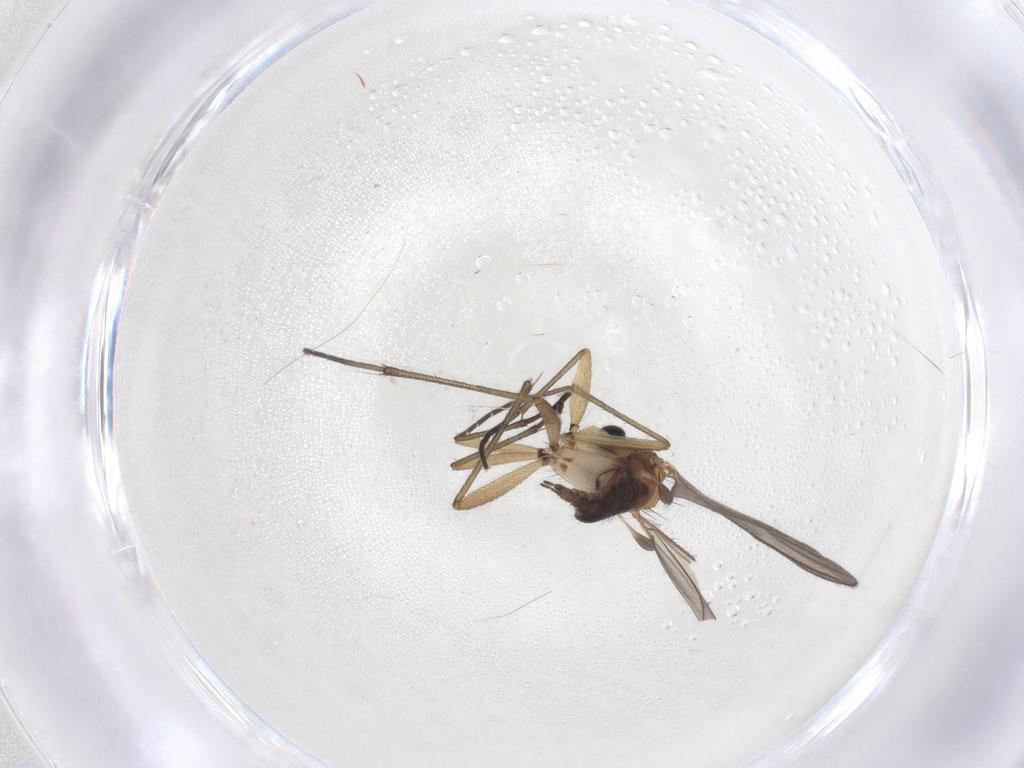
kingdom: Animalia
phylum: Arthropoda
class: Insecta
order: Diptera
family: Sciaridae
